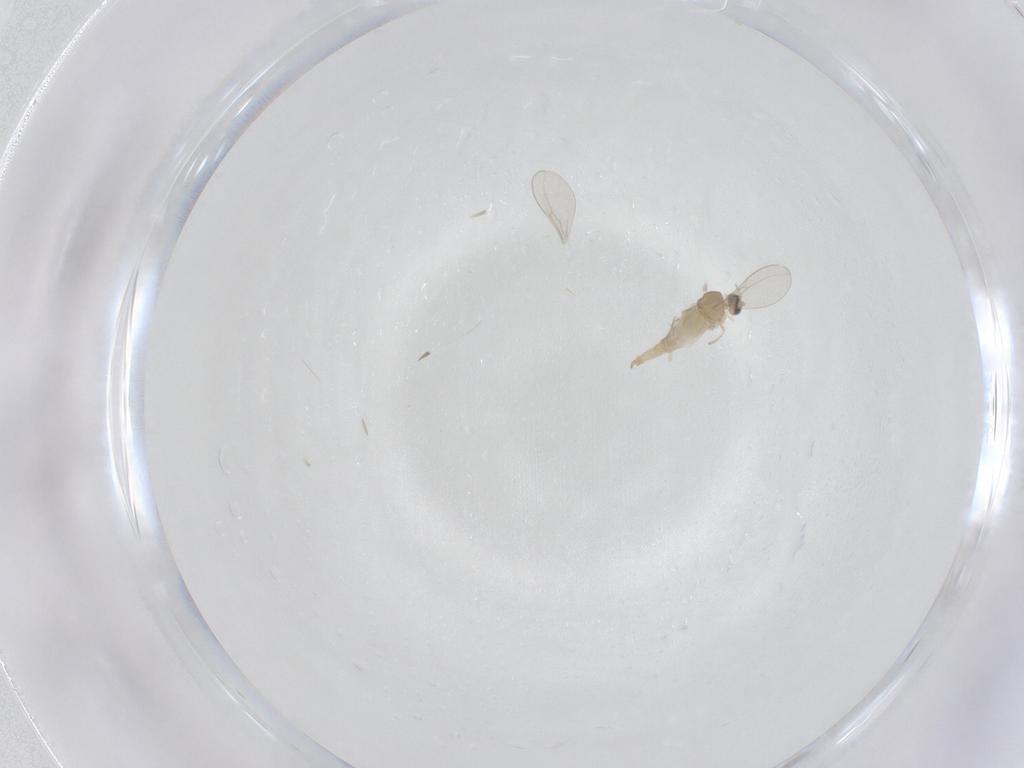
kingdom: Animalia
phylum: Arthropoda
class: Insecta
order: Diptera
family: Cecidomyiidae
